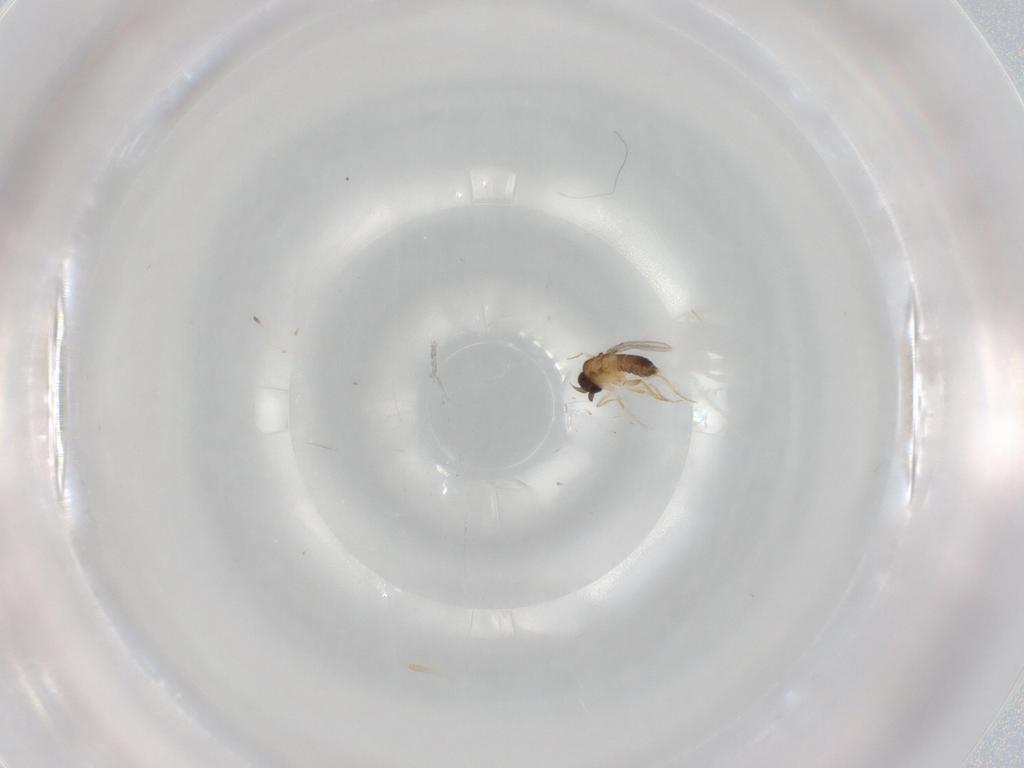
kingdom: Animalia
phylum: Arthropoda
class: Insecta
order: Diptera
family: Phoridae
